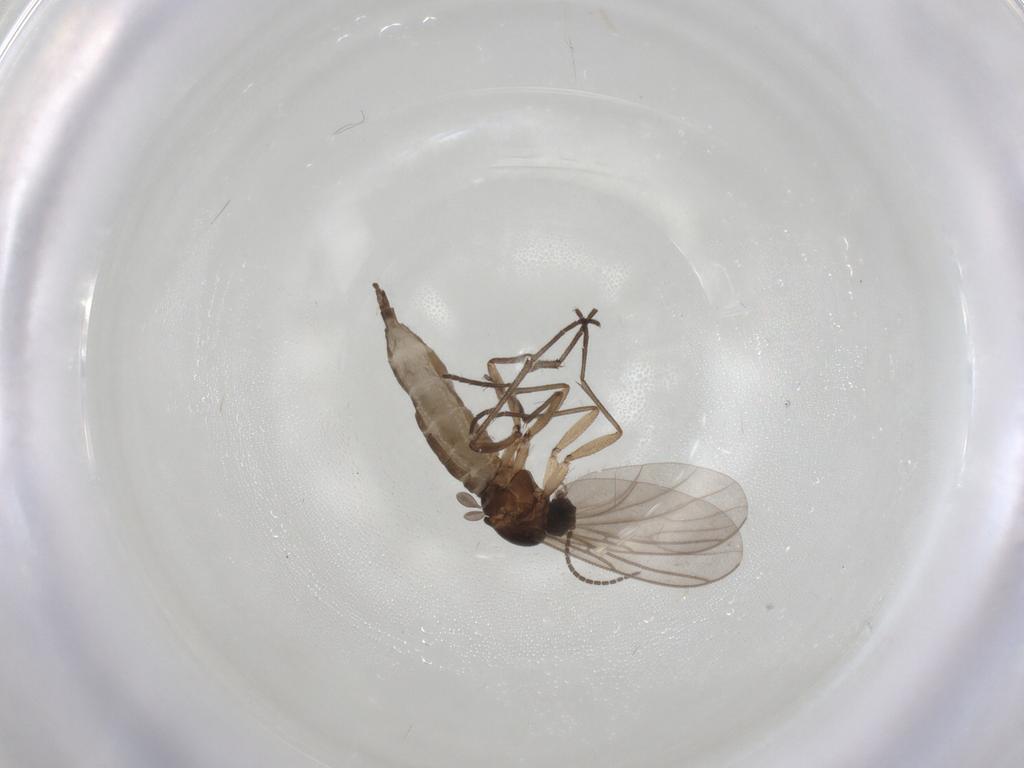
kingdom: Animalia
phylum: Arthropoda
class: Insecta
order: Diptera
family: Sciaridae
